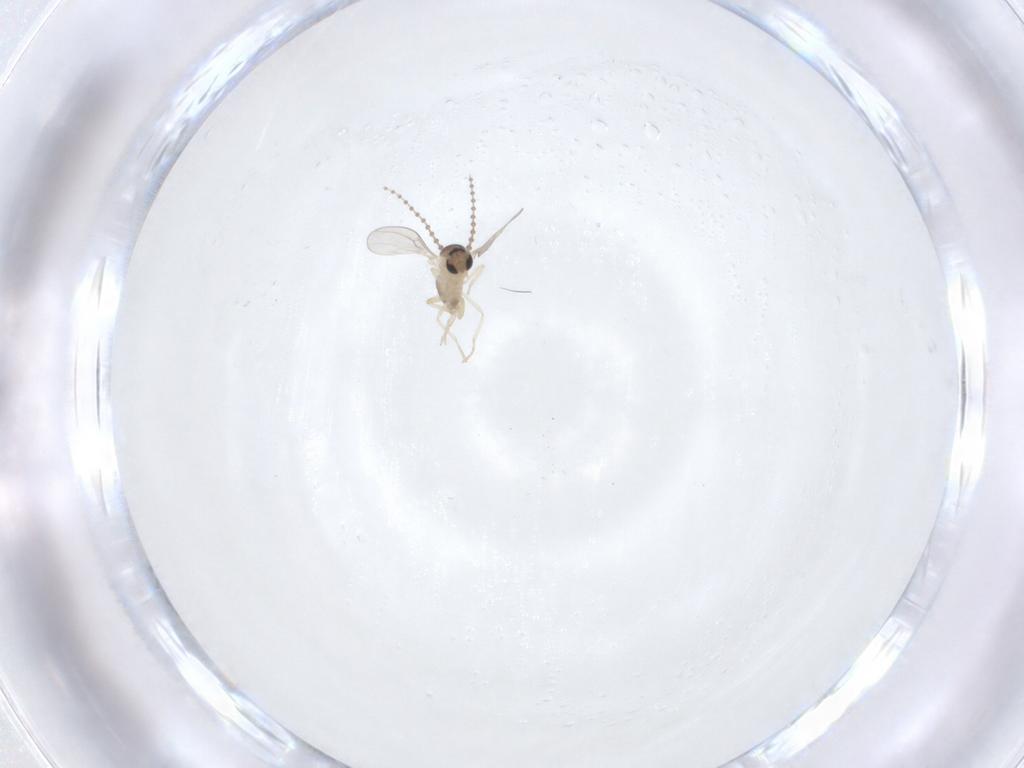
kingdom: Animalia
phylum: Arthropoda
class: Insecta
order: Diptera
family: Cecidomyiidae
